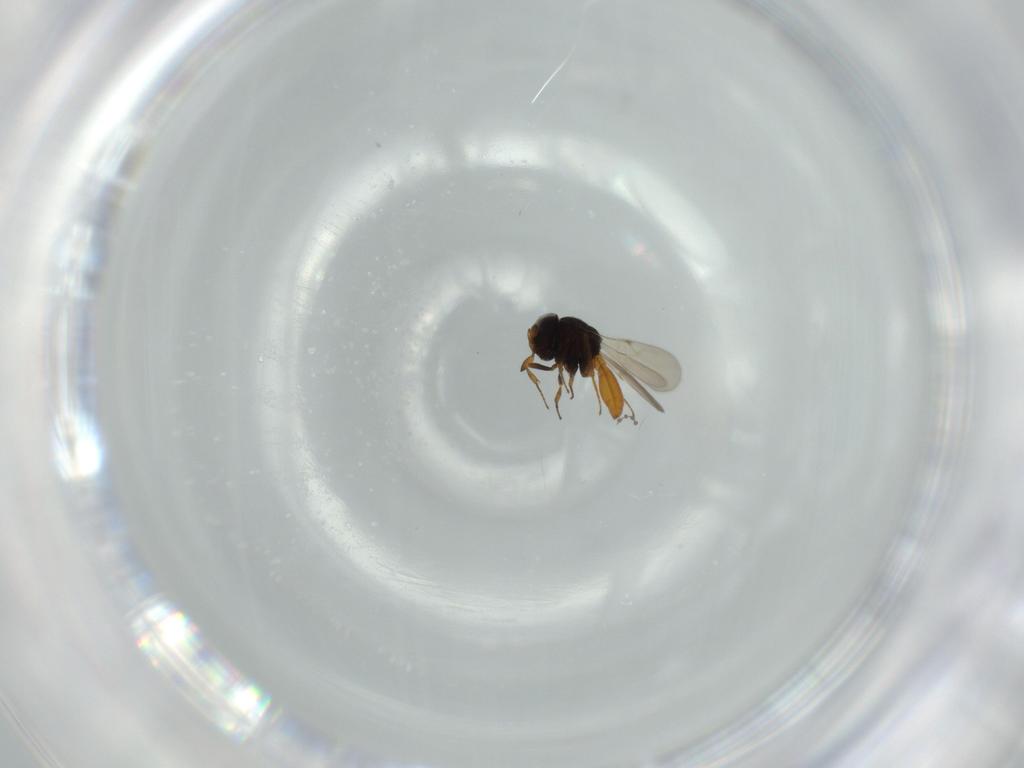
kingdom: Animalia
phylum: Arthropoda
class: Insecta
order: Hymenoptera
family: Scelionidae
